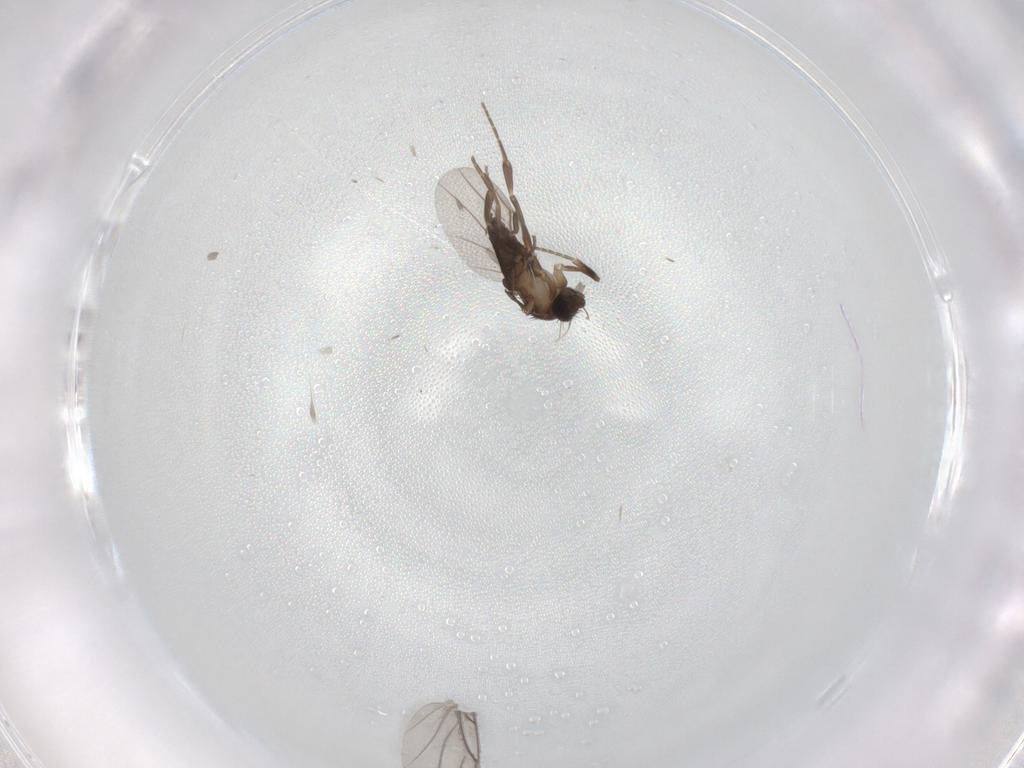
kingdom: Animalia
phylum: Arthropoda
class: Insecta
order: Diptera
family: Phoridae
